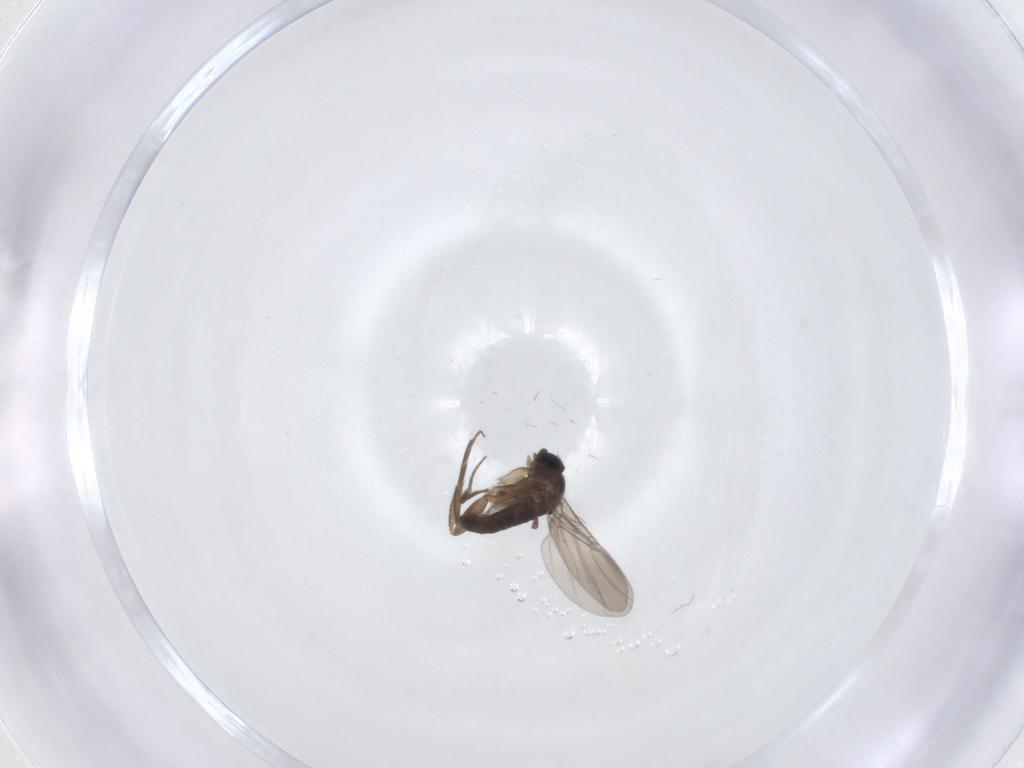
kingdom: Animalia
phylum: Arthropoda
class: Insecta
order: Diptera
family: Phoridae
